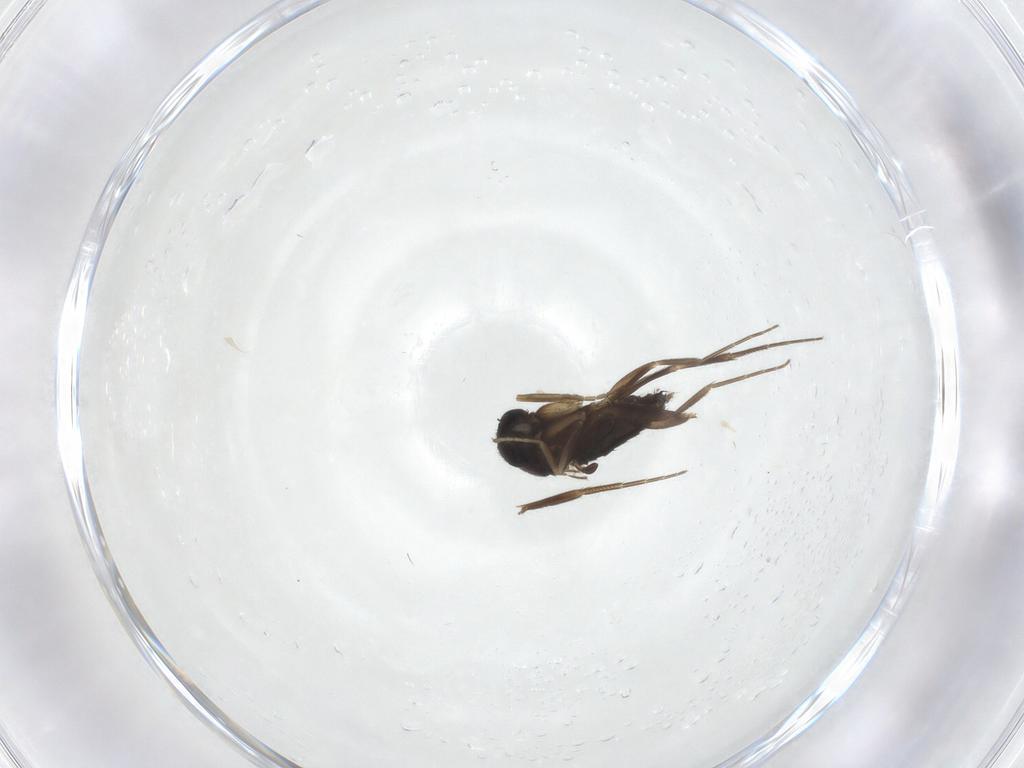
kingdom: Animalia
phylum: Arthropoda
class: Insecta
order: Diptera
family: Phoridae
